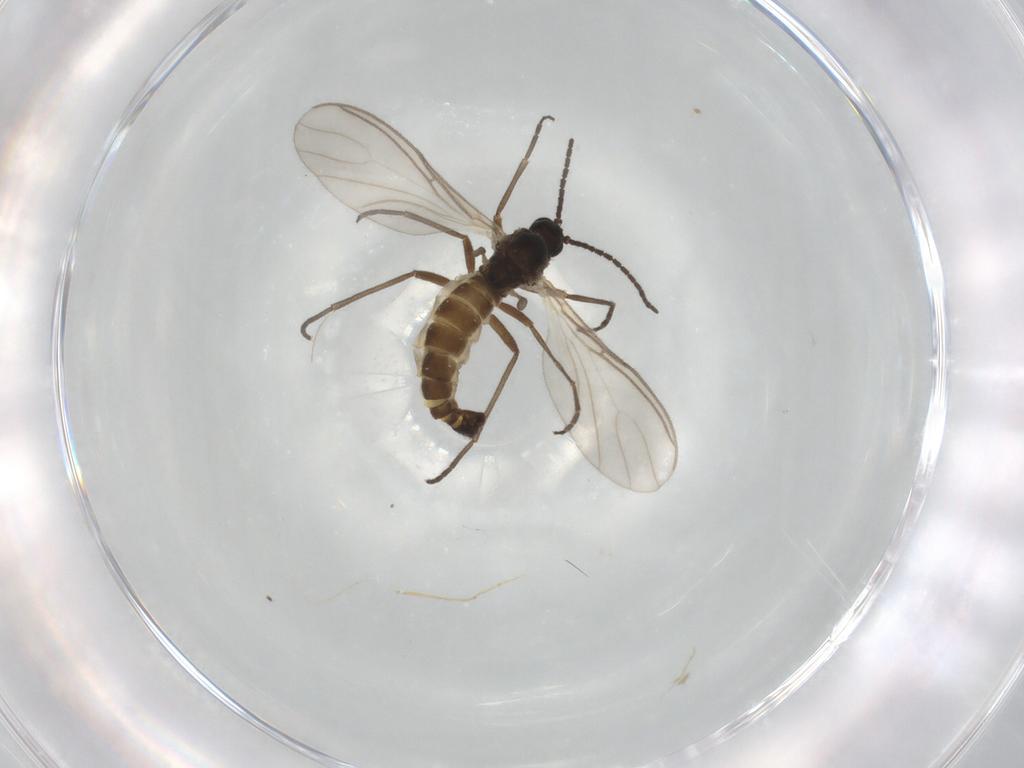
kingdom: Animalia
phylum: Arthropoda
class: Insecta
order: Diptera
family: Sciaridae
